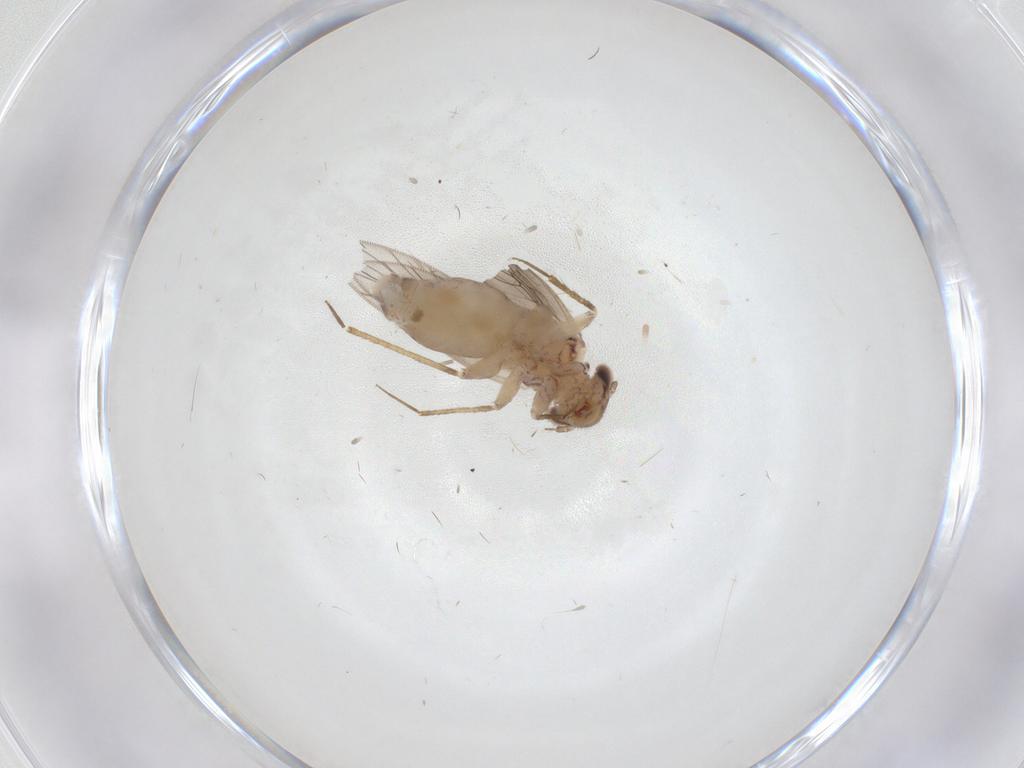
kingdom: Animalia
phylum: Arthropoda
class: Insecta
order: Psocodea
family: Lepidopsocidae
